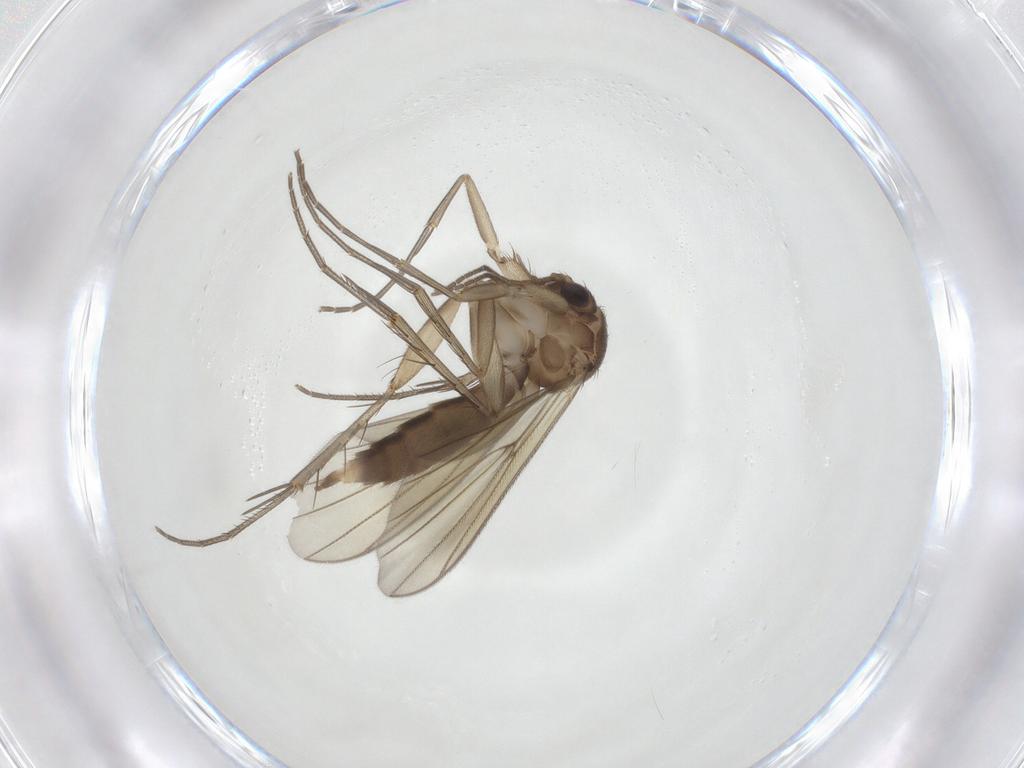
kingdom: Animalia
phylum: Arthropoda
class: Insecta
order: Diptera
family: Mycetophilidae
